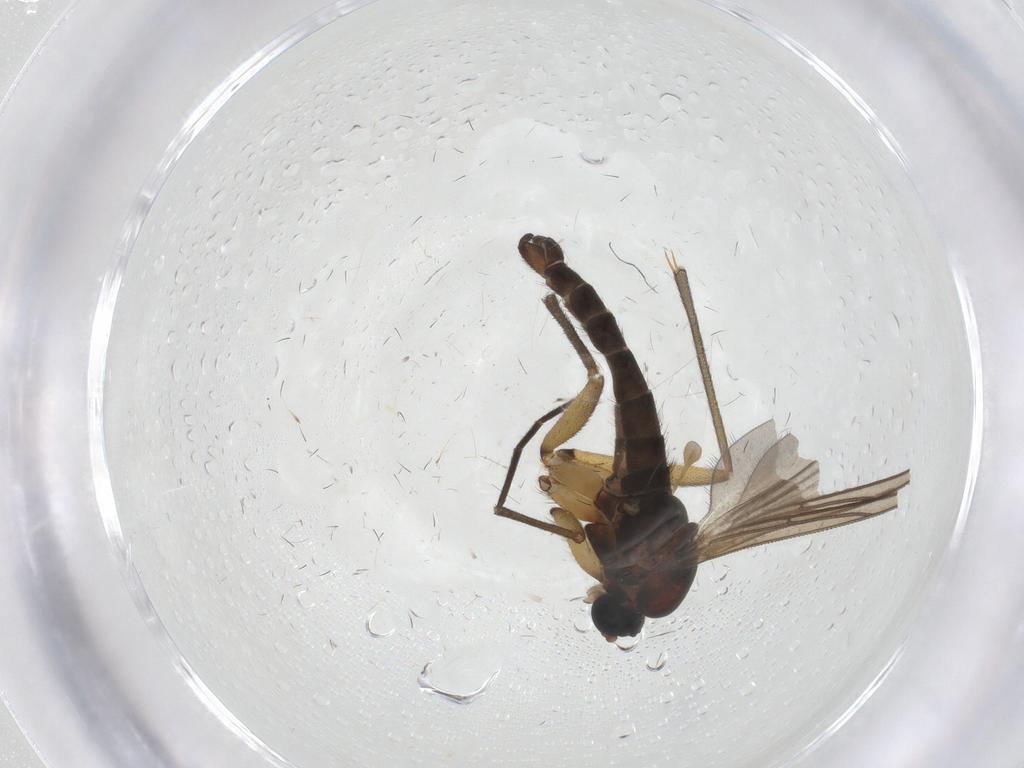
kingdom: Animalia
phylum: Arthropoda
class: Insecta
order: Diptera
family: Sciaridae
